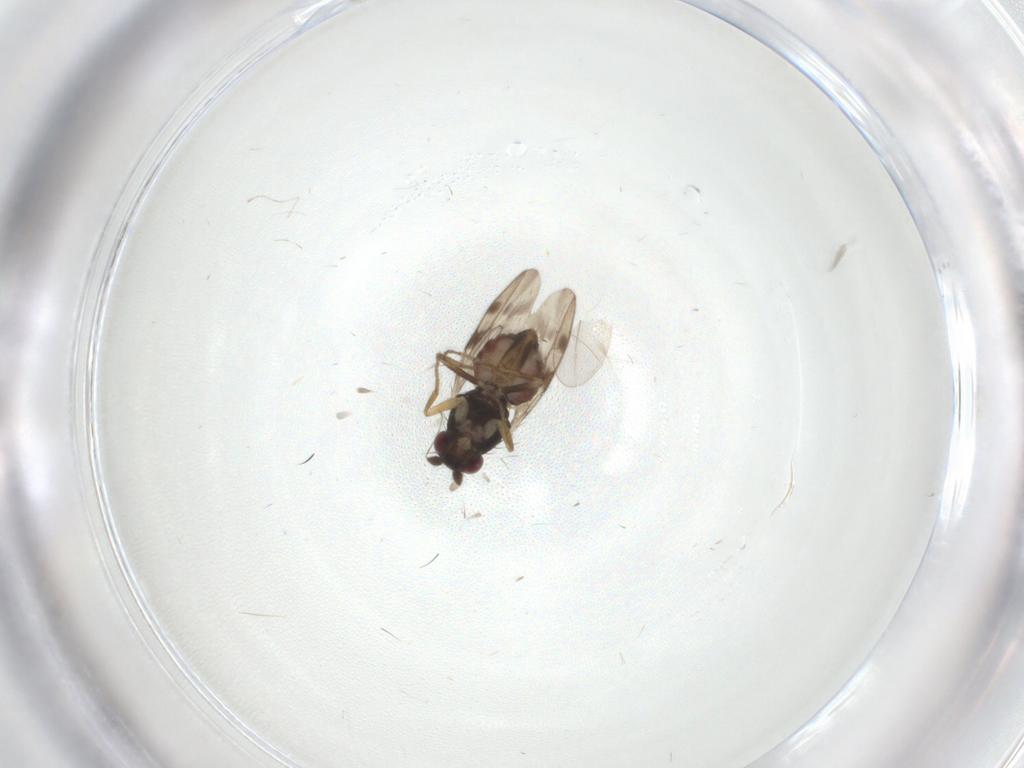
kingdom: Animalia
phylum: Arthropoda
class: Insecta
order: Diptera
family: Sphaeroceridae
